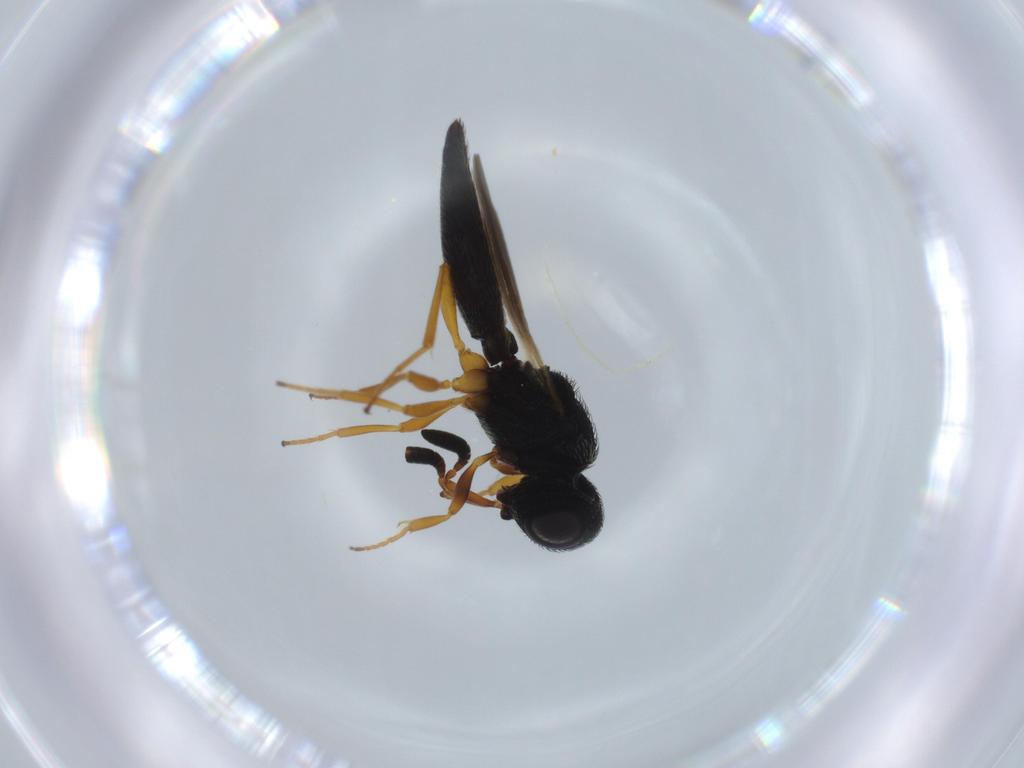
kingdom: Animalia
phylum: Arthropoda
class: Insecta
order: Hymenoptera
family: Scelionidae
